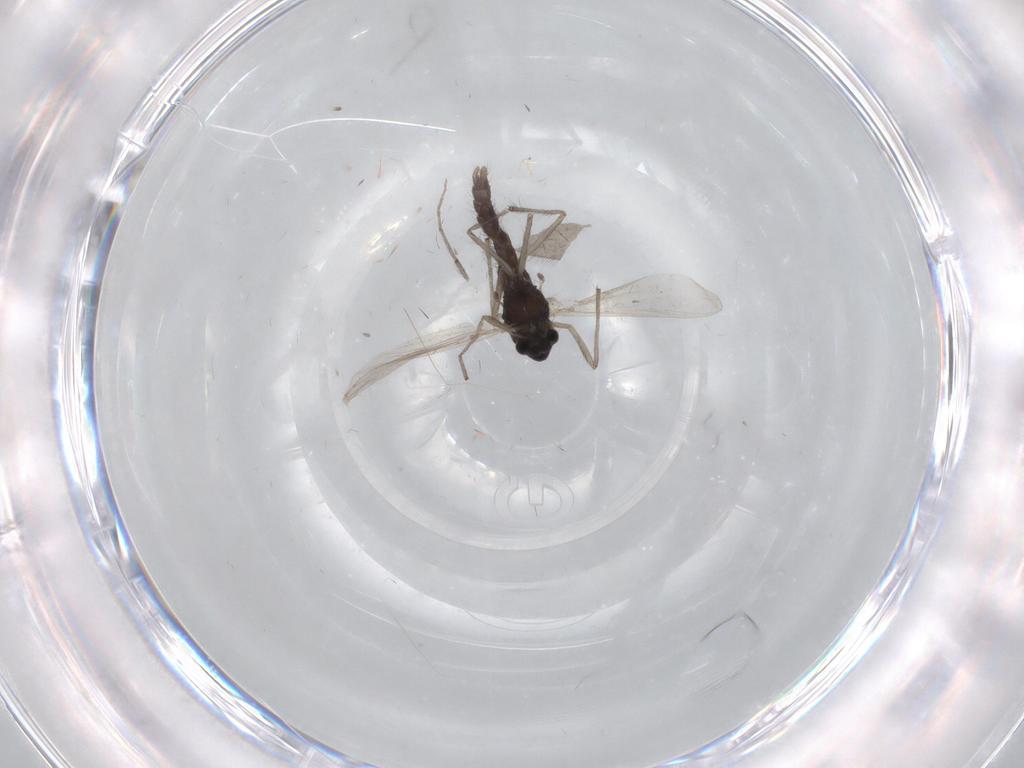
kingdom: Animalia
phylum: Arthropoda
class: Insecta
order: Diptera
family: Chironomidae
